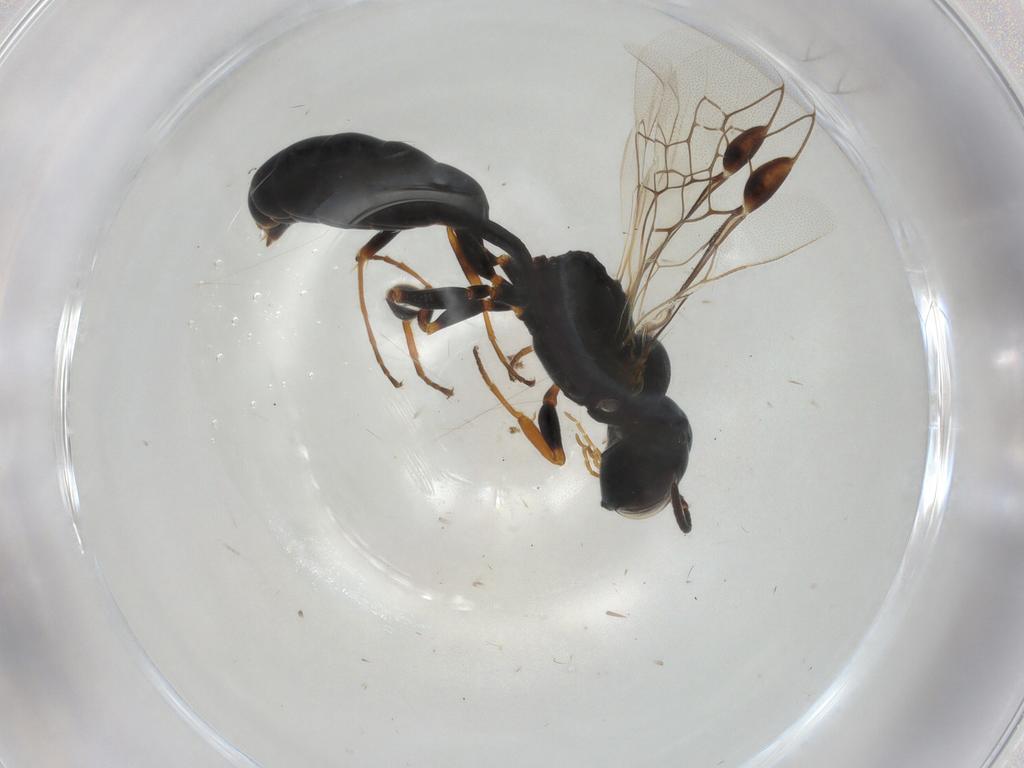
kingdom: Animalia
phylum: Arthropoda
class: Insecta
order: Hymenoptera
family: Pemphredonidae
